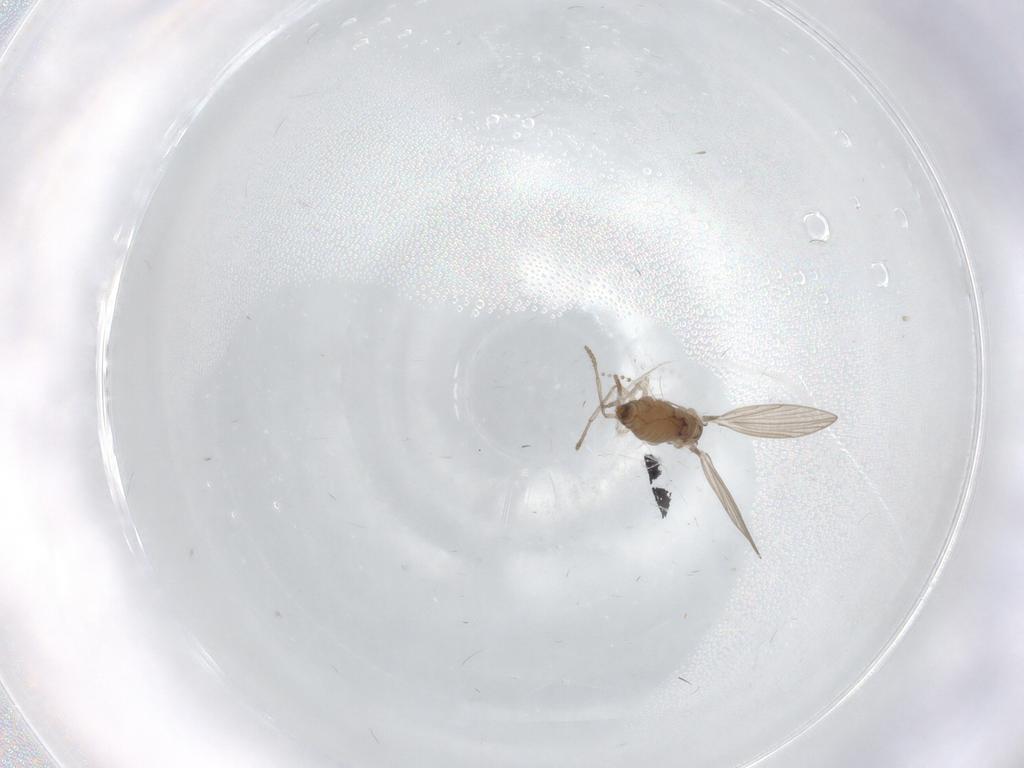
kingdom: Animalia
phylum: Arthropoda
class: Insecta
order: Diptera
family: Psychodidae
